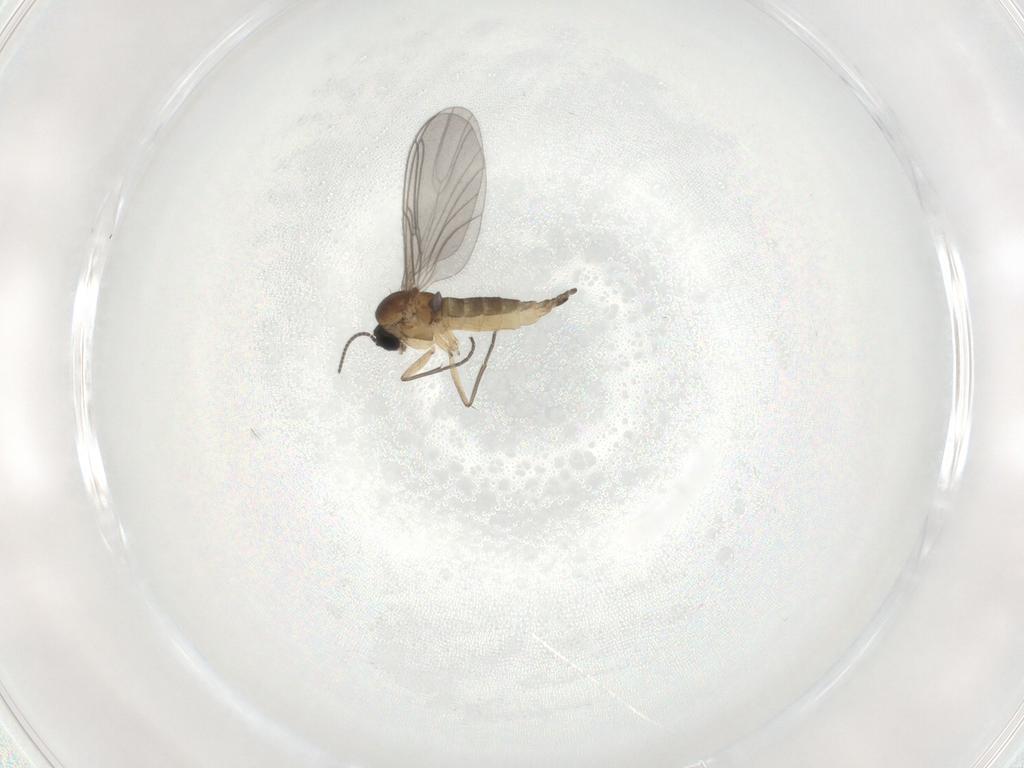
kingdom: Animalia
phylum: Arthropoda
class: Insecta
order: Diptera
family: Sciaridae
